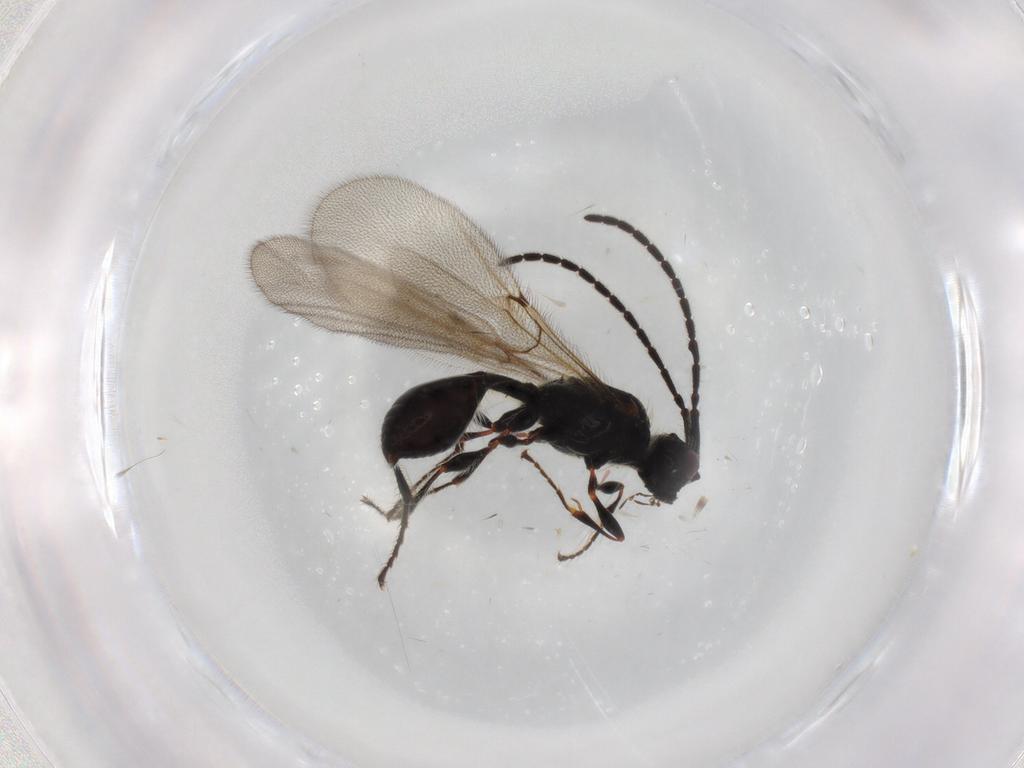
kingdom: Animalia
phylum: Arthropoda
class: Insecta
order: Hymenoptera
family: Diapriidae
